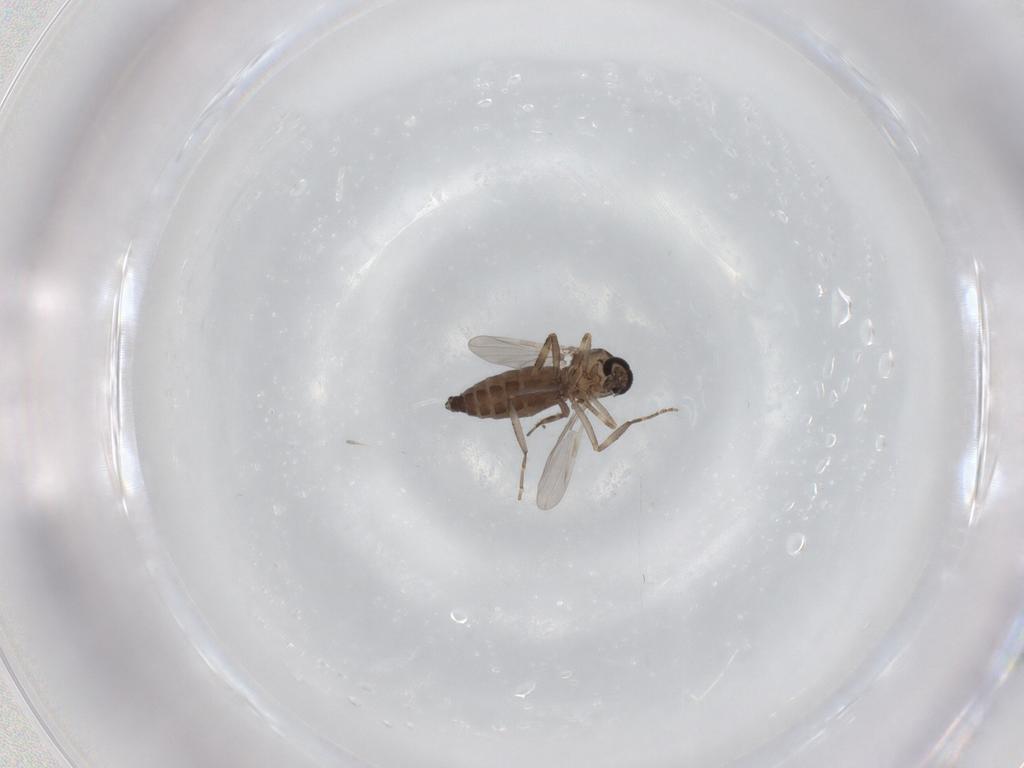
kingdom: Animalia
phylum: Arthropoda
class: Insecta
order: Diptera
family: Ceratopogonidae
